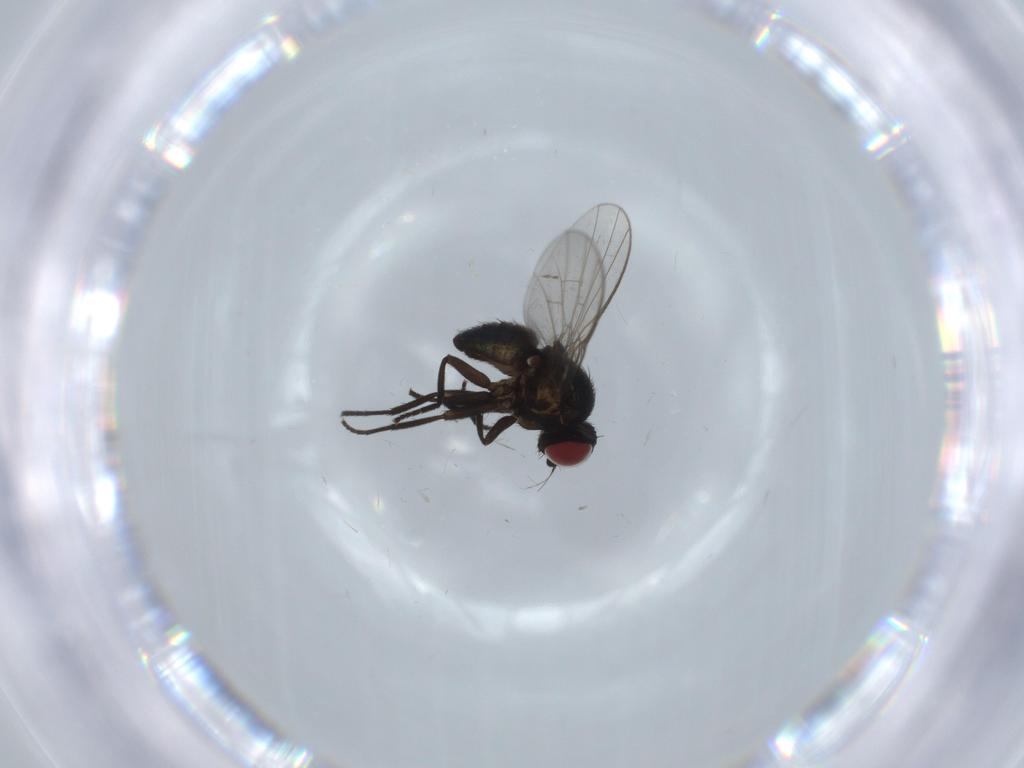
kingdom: Animalia
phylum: Arthropoda
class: Insecta
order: Diptera
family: Agromyzidae
